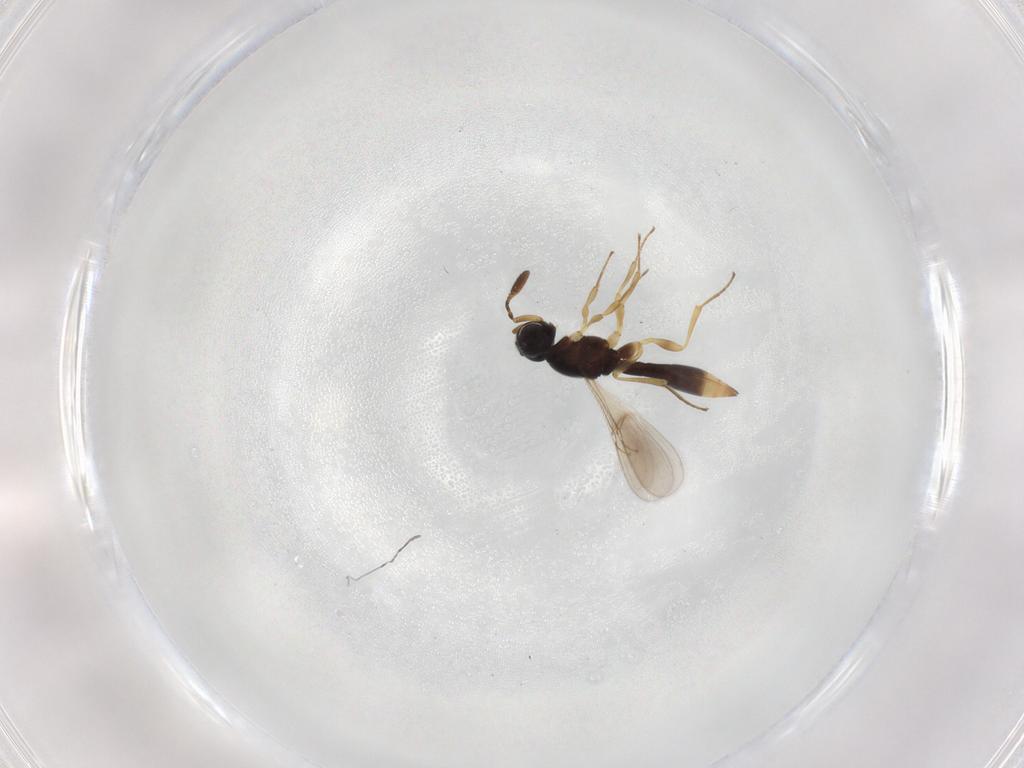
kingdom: Animalia
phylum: Arthropoda
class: Insecta
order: Hymenoptera
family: Scelionidae
